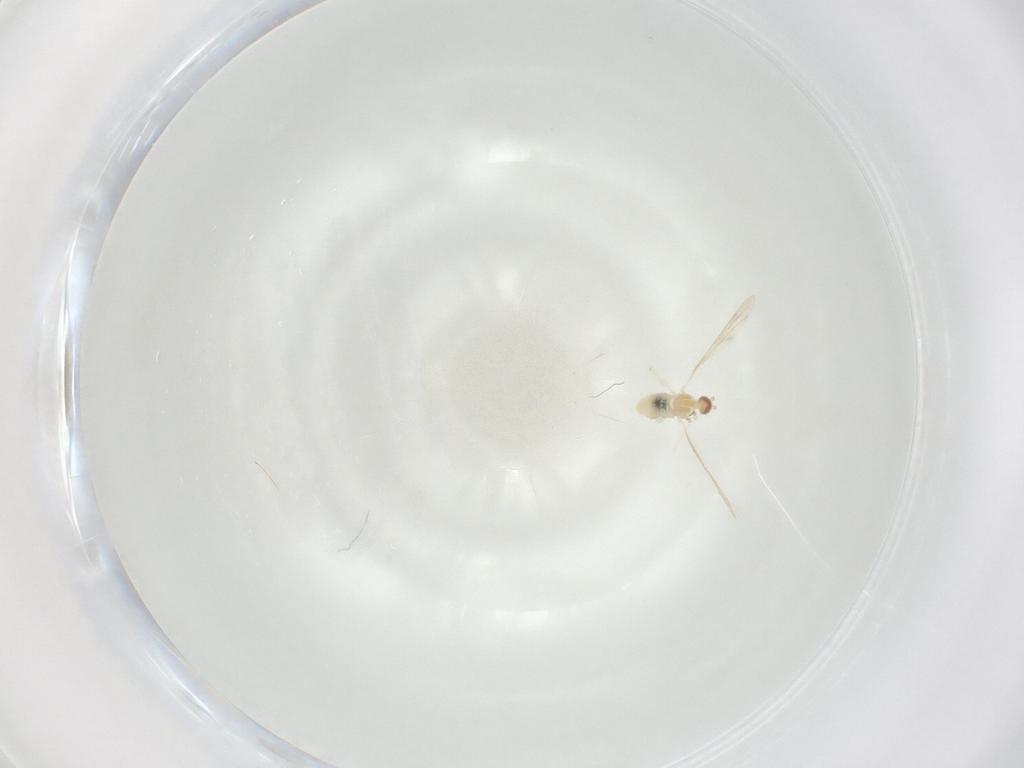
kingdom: Animalia
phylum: Arthropoda
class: Insecta
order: Diptera
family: Cecidomyiidae
